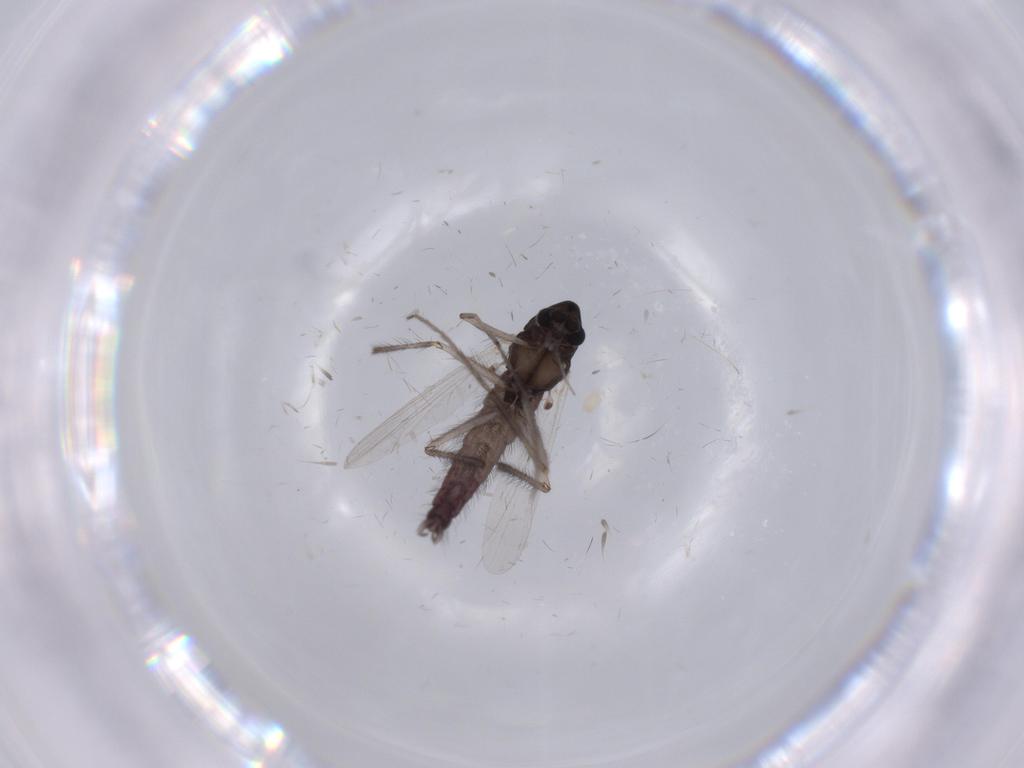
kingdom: Animalia
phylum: Arthropoda
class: Insecta
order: Diptera
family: Chironomidae
